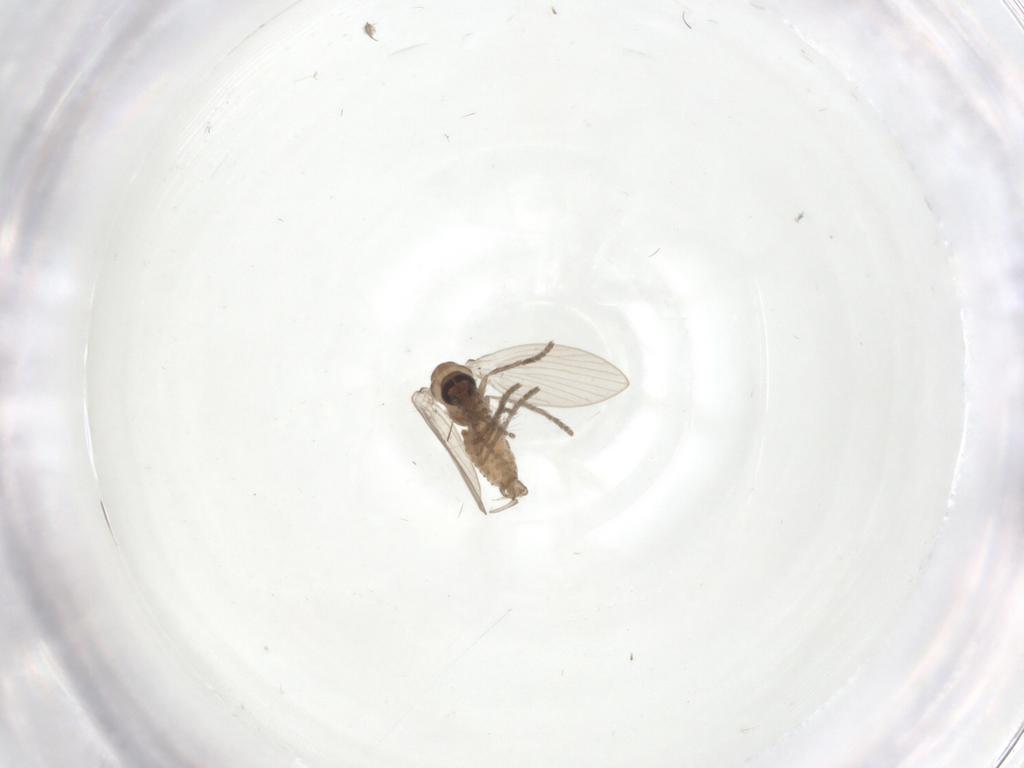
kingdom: Animalia
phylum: Arthropoda
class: Insecta
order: Diptera
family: Psychodidae
